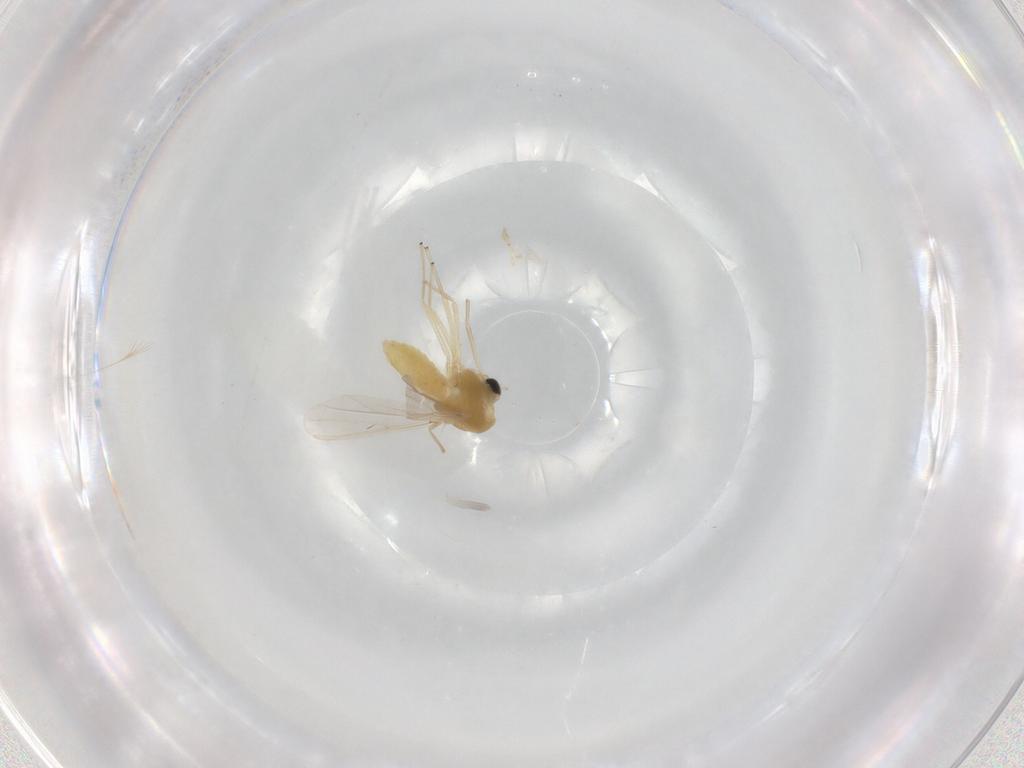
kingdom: Animalia
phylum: Arthropoda
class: Insecta
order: Diptera
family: Chironomidae
